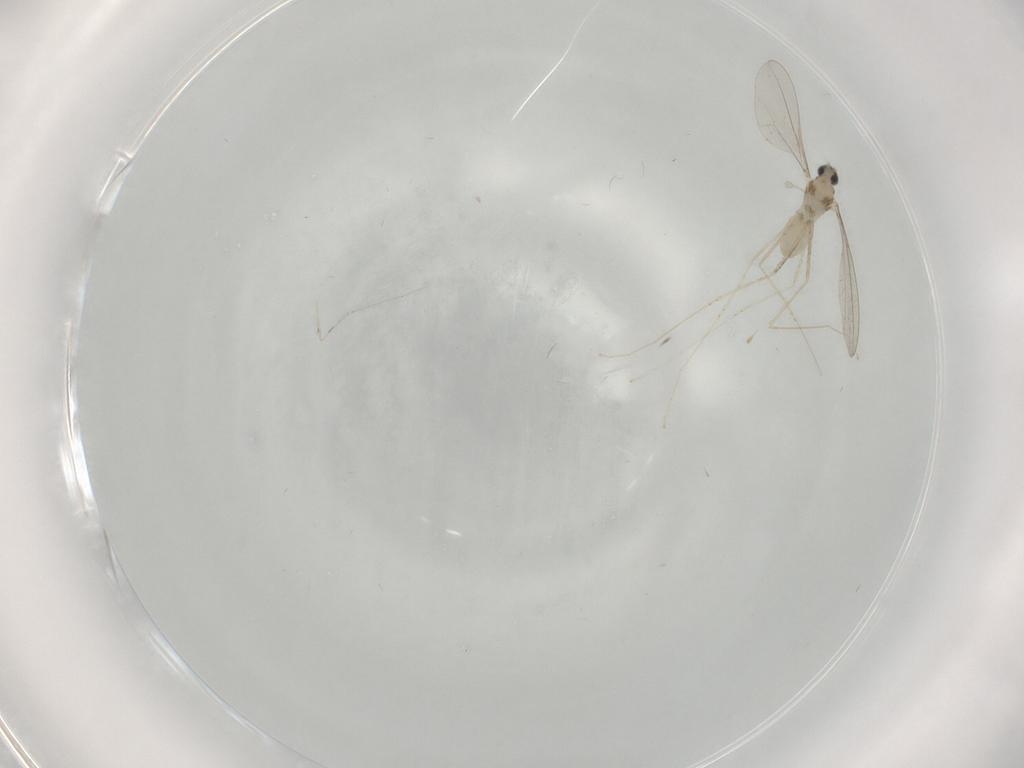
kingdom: Animalia
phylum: Arthropoda
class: Insecta
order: Diptera
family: Cecidomyiidae
